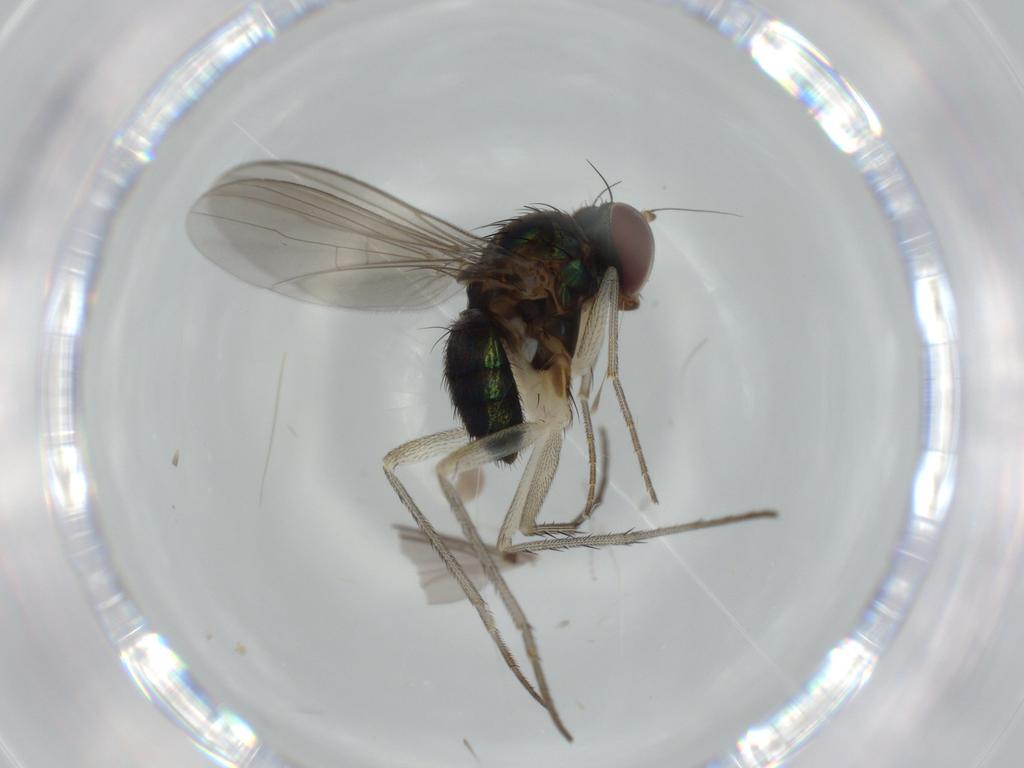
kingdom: Animalia
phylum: Arthropoda
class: Insecta
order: Diptera
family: Dolichopodidae
